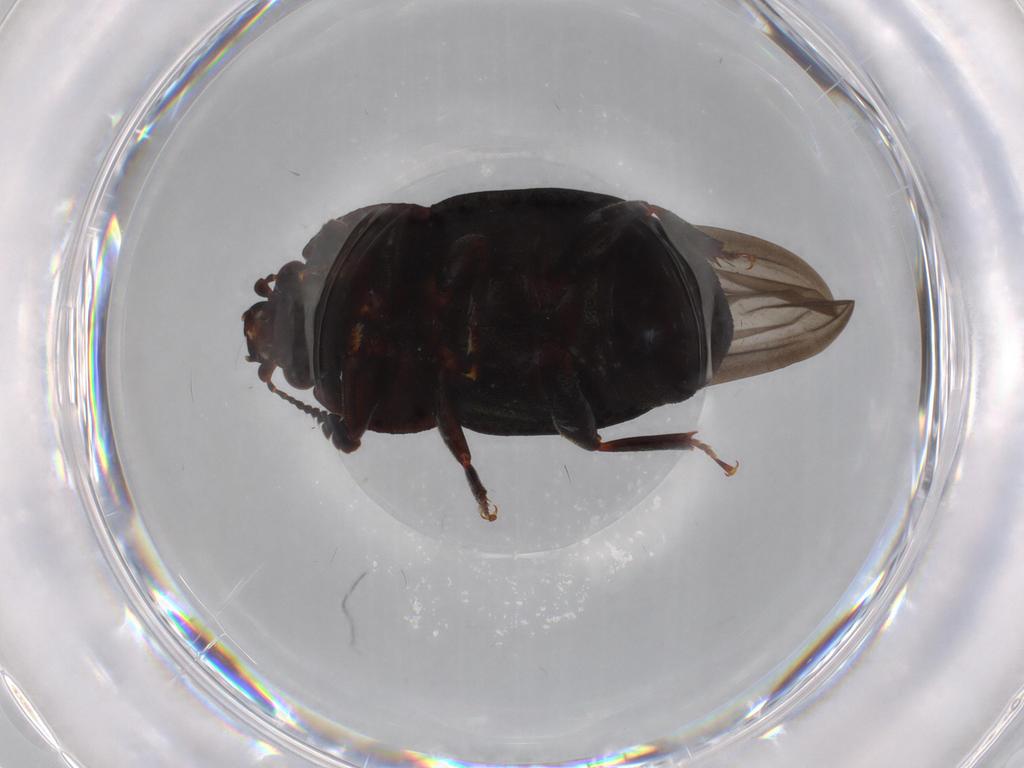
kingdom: Animalia
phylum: Arthropoda
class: Insecta
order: Coleoptera
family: Nitidulidae
